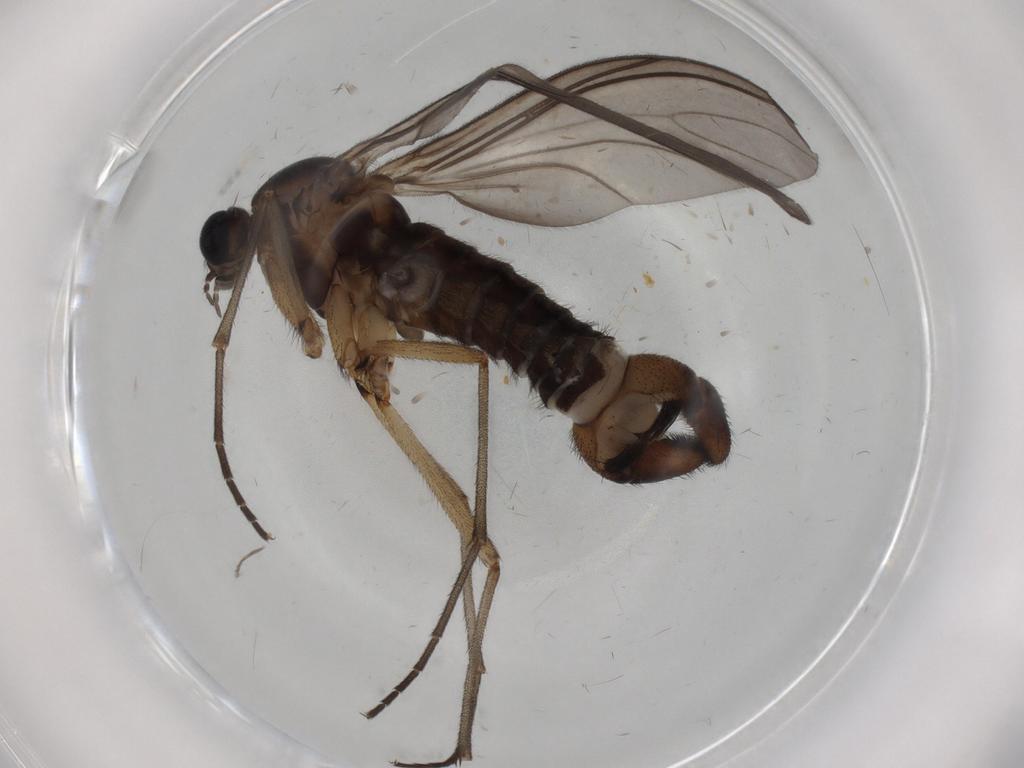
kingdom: Animalia
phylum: Arthropoda
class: Insecta
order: Diptera
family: Sciaridae
